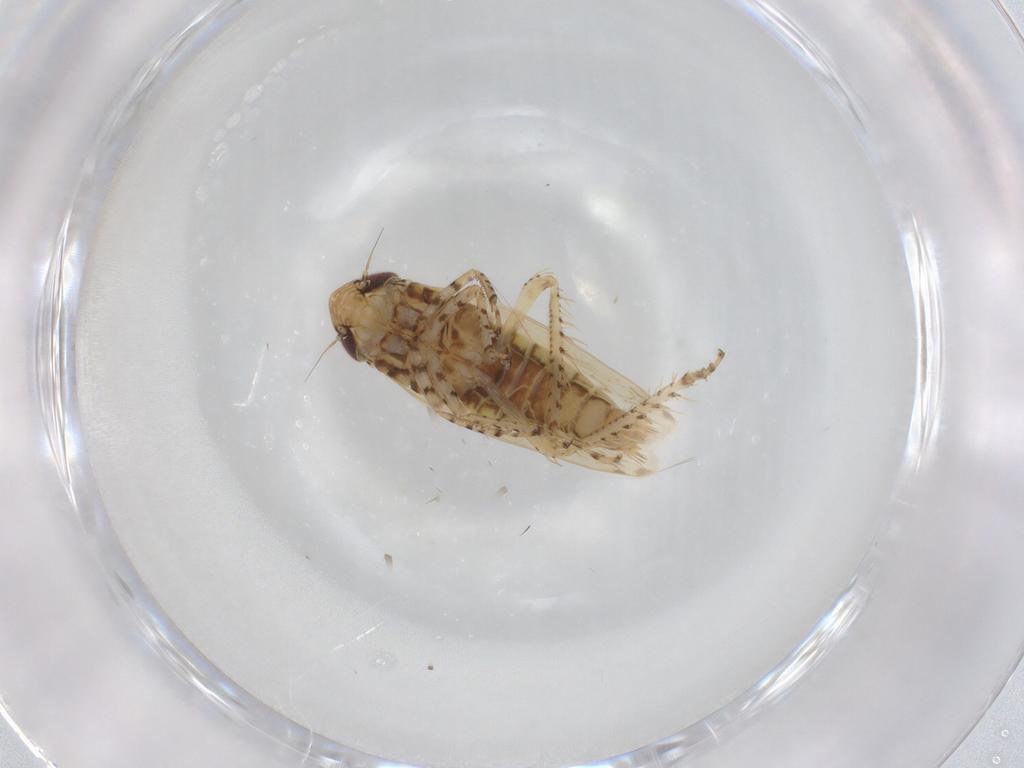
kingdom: Animalia
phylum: Arthropoda
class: Insecta
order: Hemiptera
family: Cicadellidae
